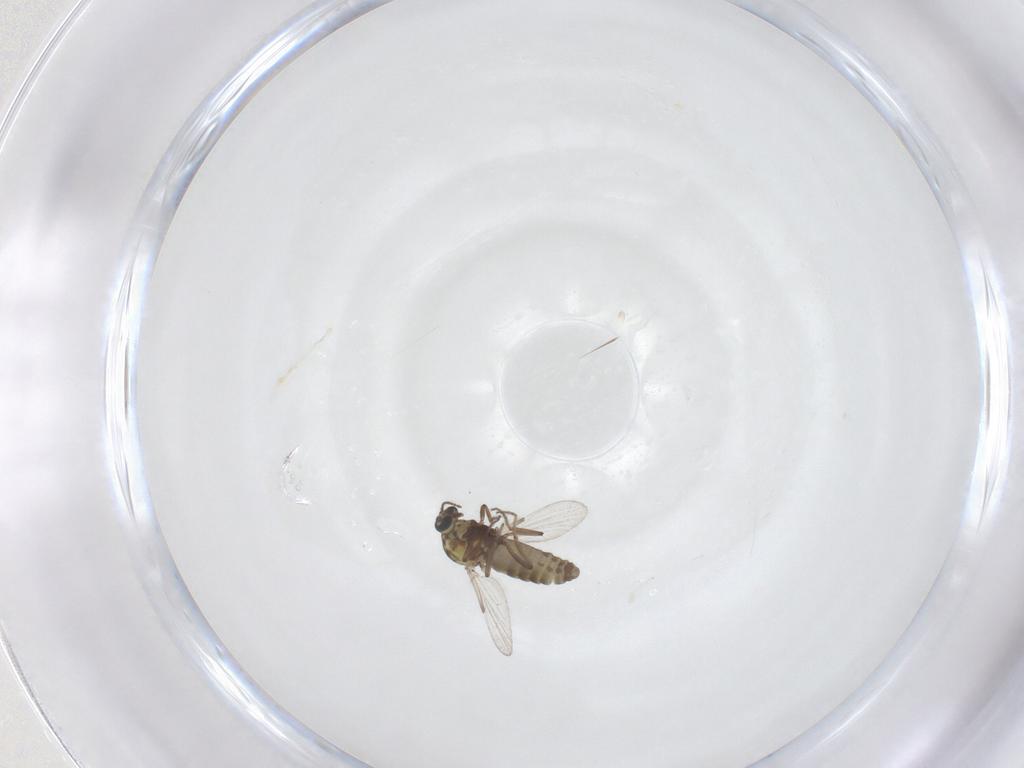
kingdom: Animalia
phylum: Arthropoda
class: Insecta
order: Diptera
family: Ceratopogonidae
